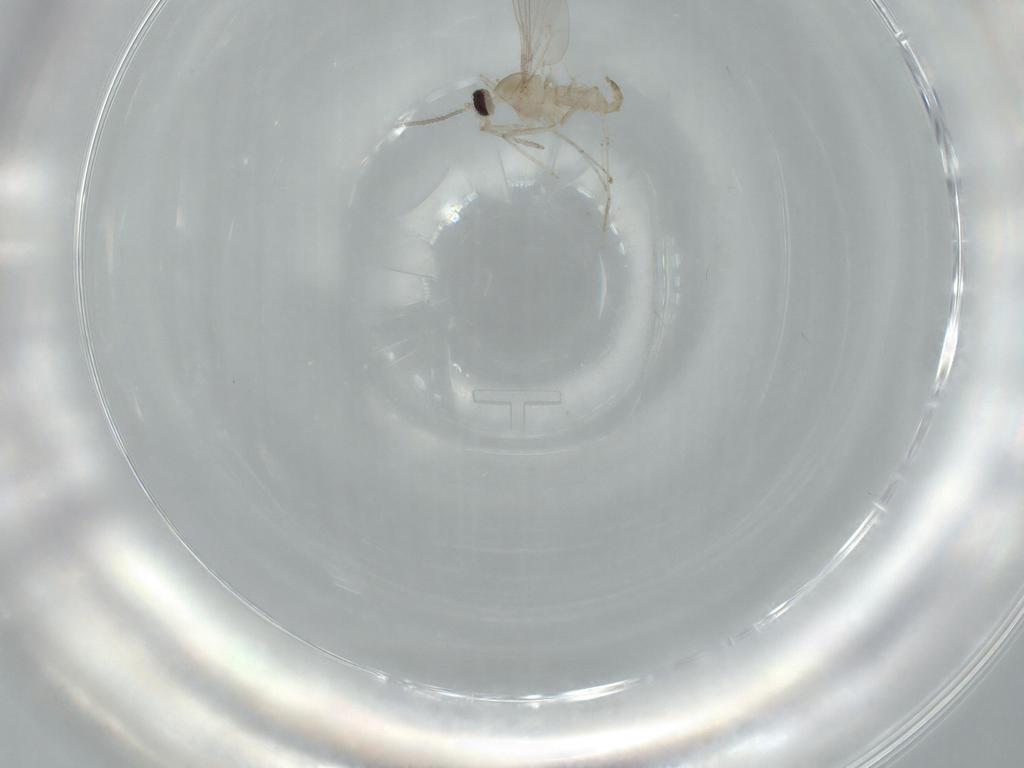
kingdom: Animalia
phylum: Arthropoda
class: Insecta
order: Diptera
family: Cecidomyiidae
